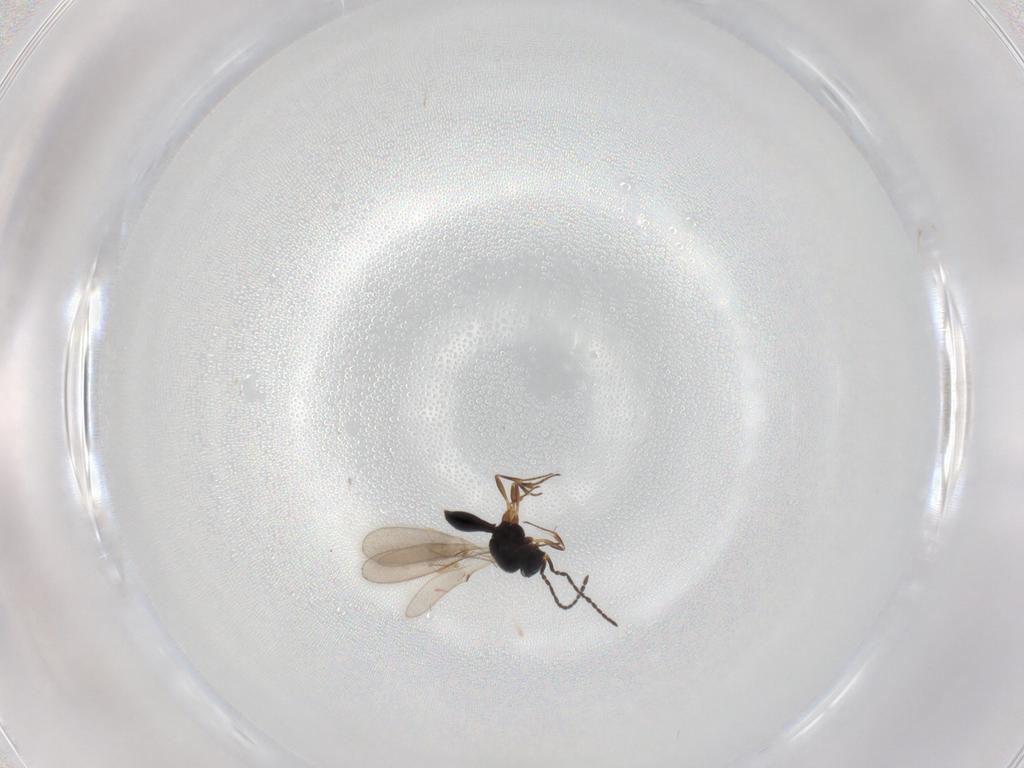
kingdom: Animalia
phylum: Arthropoda
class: Insecta
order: Hymenoptera
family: Scelionidae
